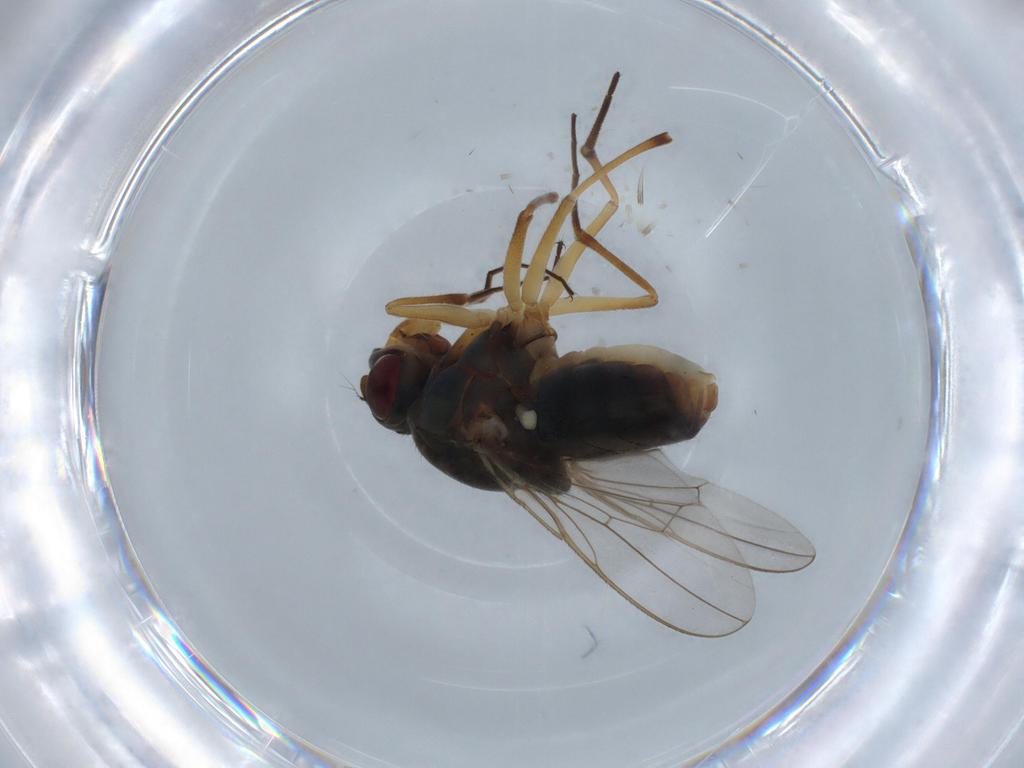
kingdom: Animalia
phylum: Arthropoda
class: Insecta
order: Diptera
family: Ephydridae
